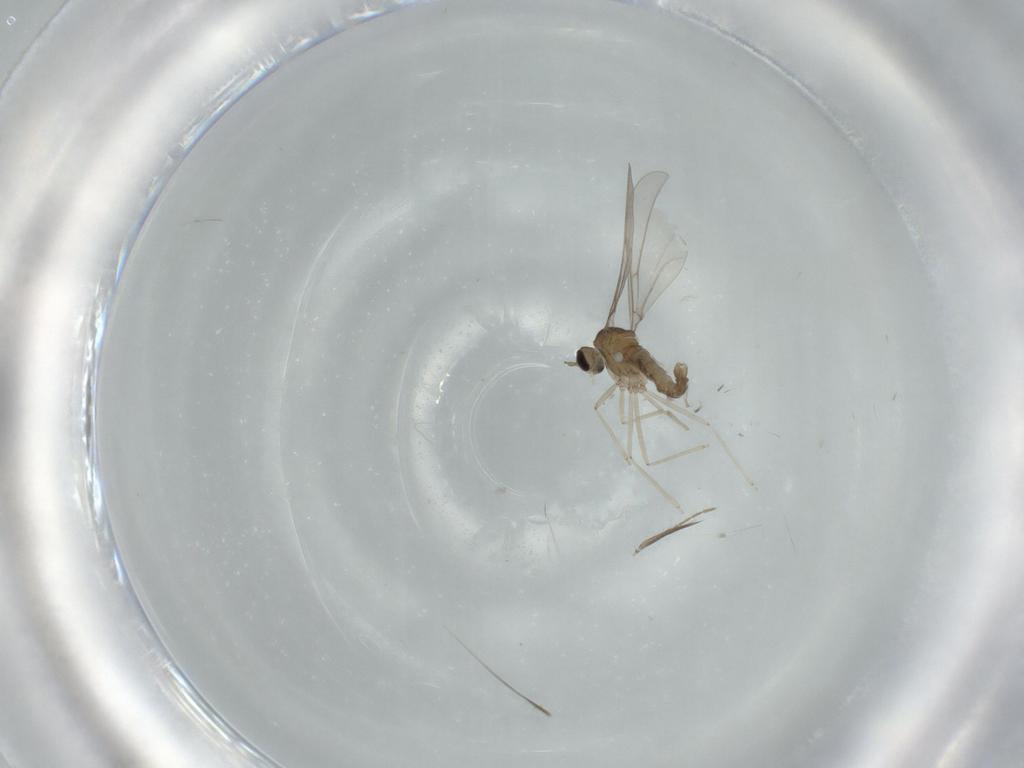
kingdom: Animalia
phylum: Arthropoda
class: Insecta
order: Diptera
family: Cecidomyiidae
